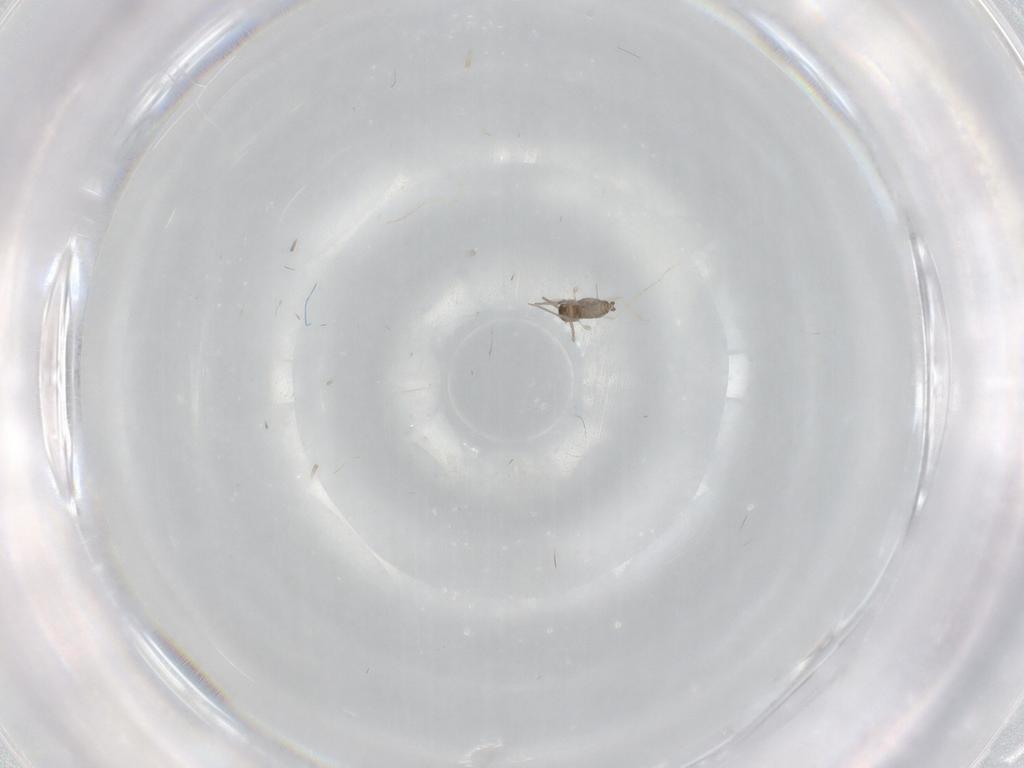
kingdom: Animalia
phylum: Arthropoda
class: Insecta
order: Diptera
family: Cecidomyiidae
